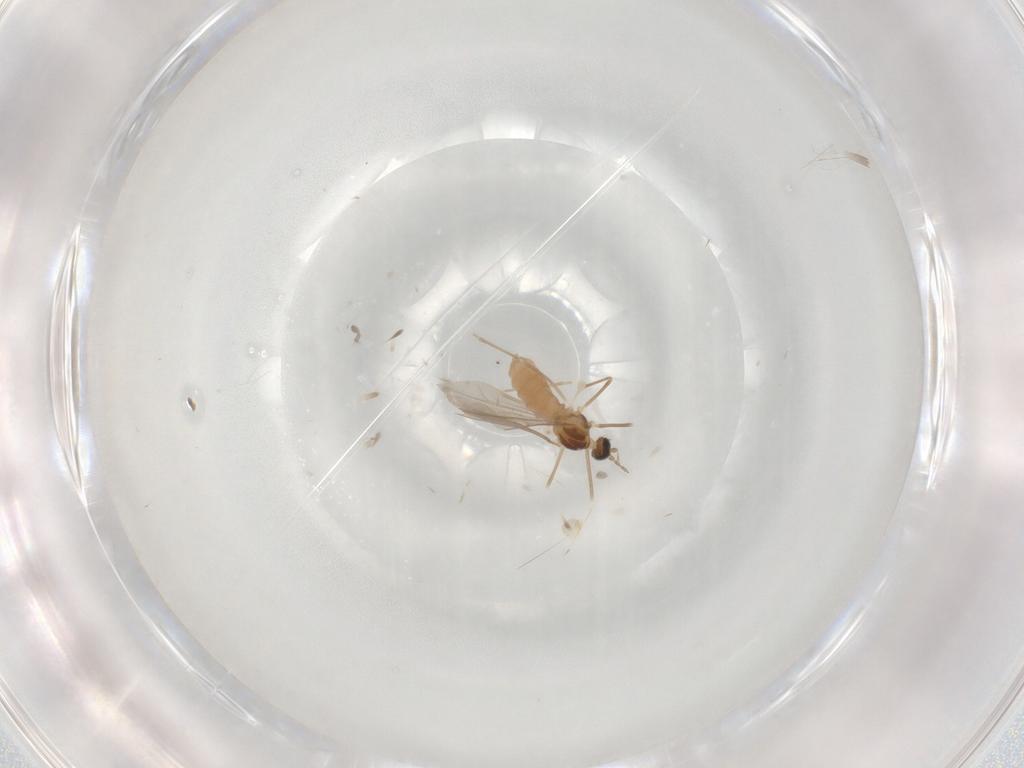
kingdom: Animalia
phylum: Arthropoda
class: Insecta
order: Diptera
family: Cecidomyiidae
